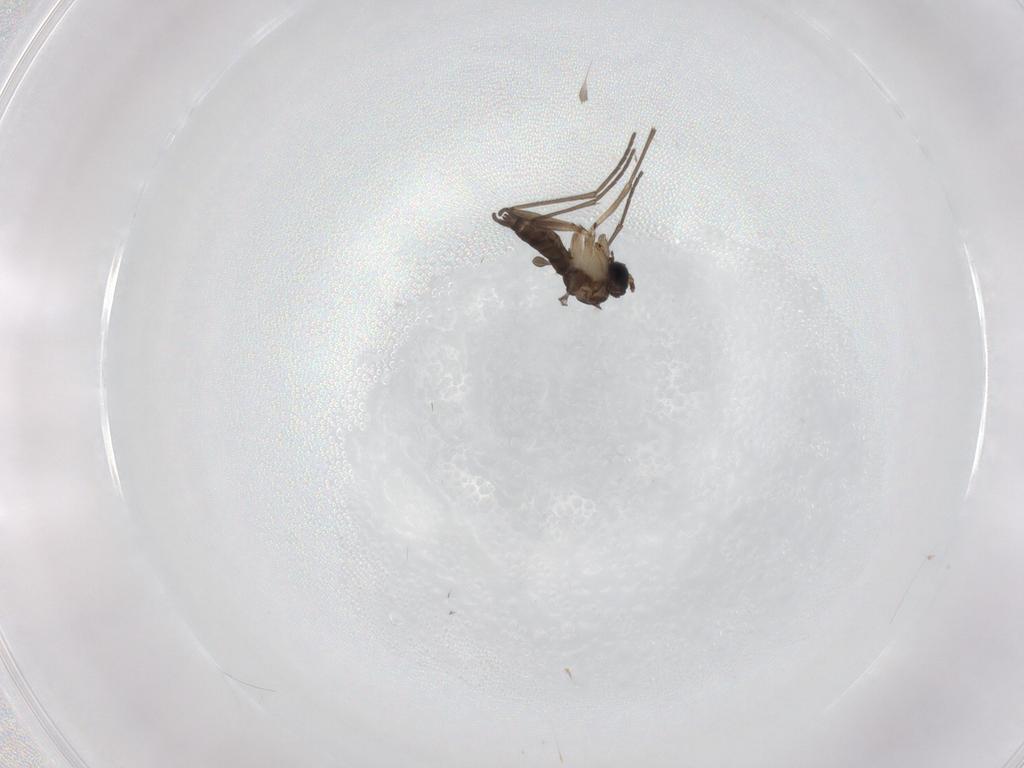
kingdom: Animalia
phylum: Arthropoda
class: Insecta
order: Diptera
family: Sciaridae
